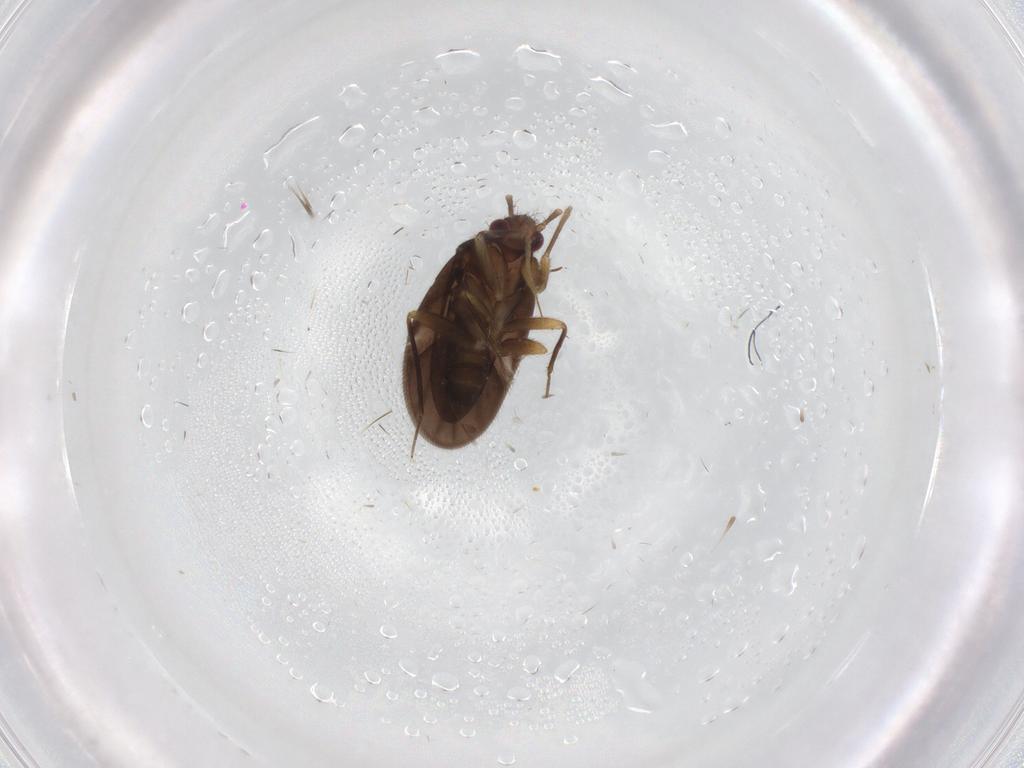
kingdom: Animalia
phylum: Arthropoda
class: Insecta
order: Hemiptera
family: Ceratocombidae
